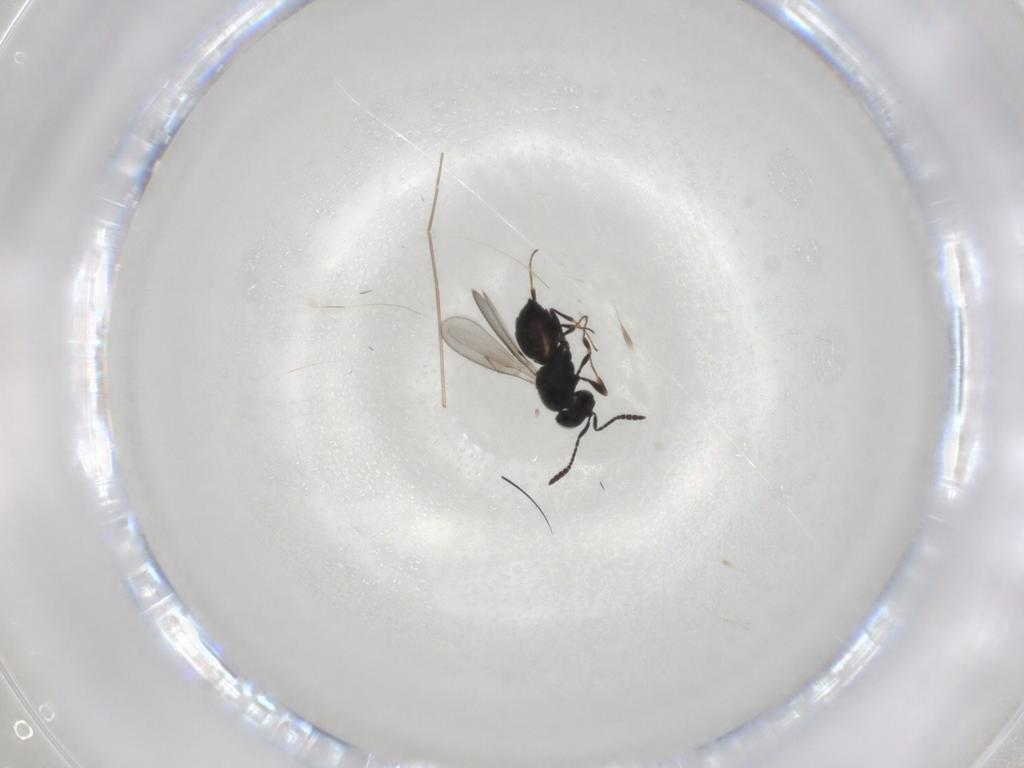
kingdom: Animalia
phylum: Arthropoda
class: Insecta
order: Hymenoptera
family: Scelionidae
